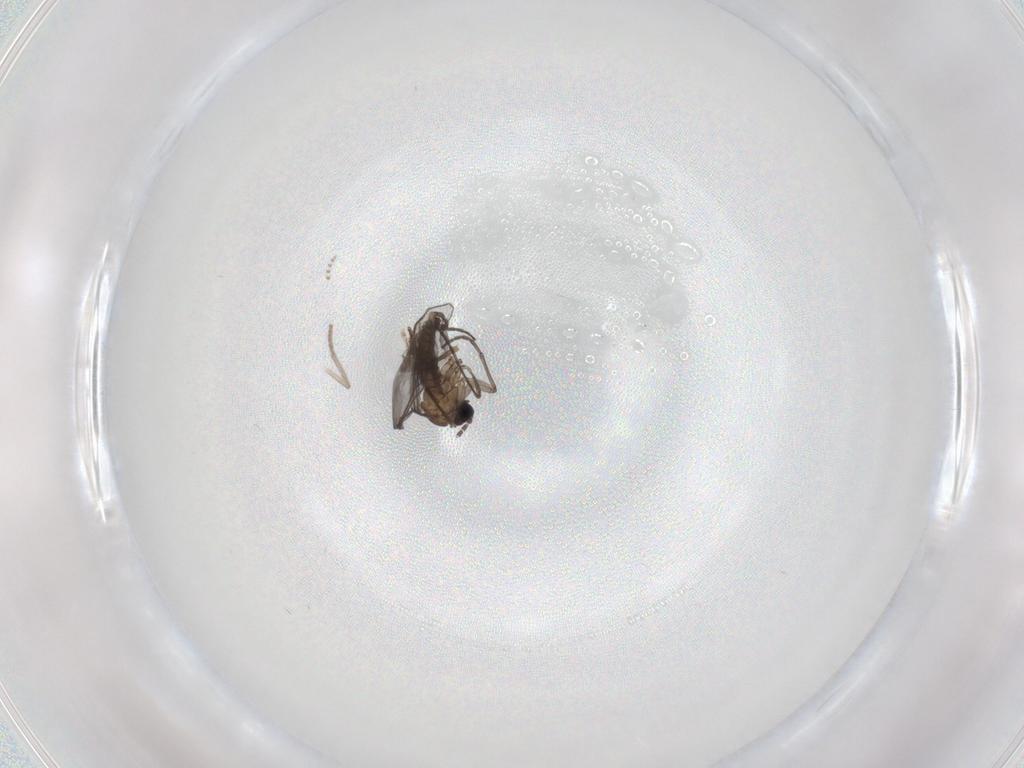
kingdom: Animalia
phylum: Arthropoda
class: Insecta
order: Diptera
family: Sciaridae
